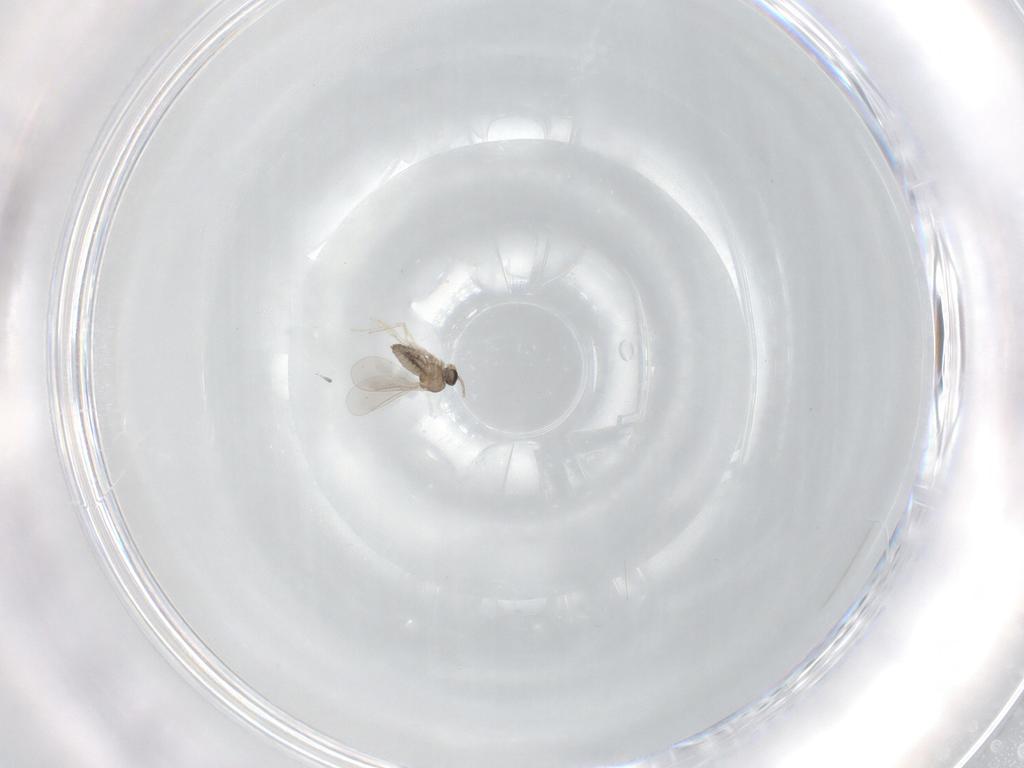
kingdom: Animalia
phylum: Arthropoda
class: Insecta
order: Diptera
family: Cecidomyiidae
